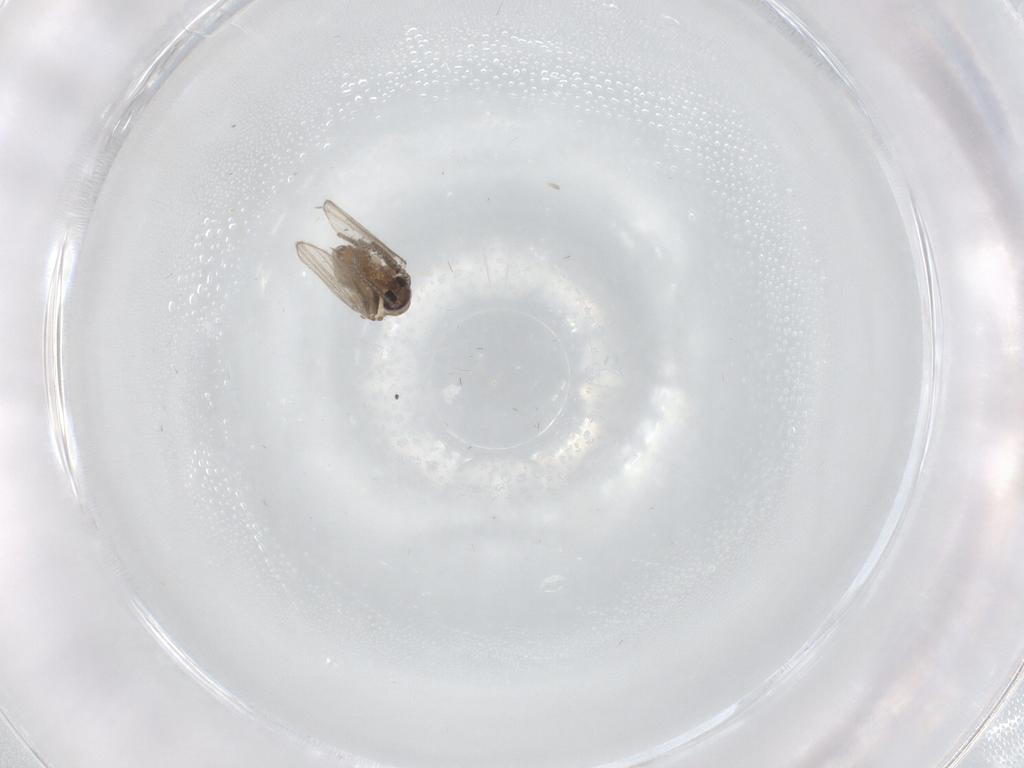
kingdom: Animalia
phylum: Arthropoda
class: Insecta
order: Diptera
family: Psychodidae
